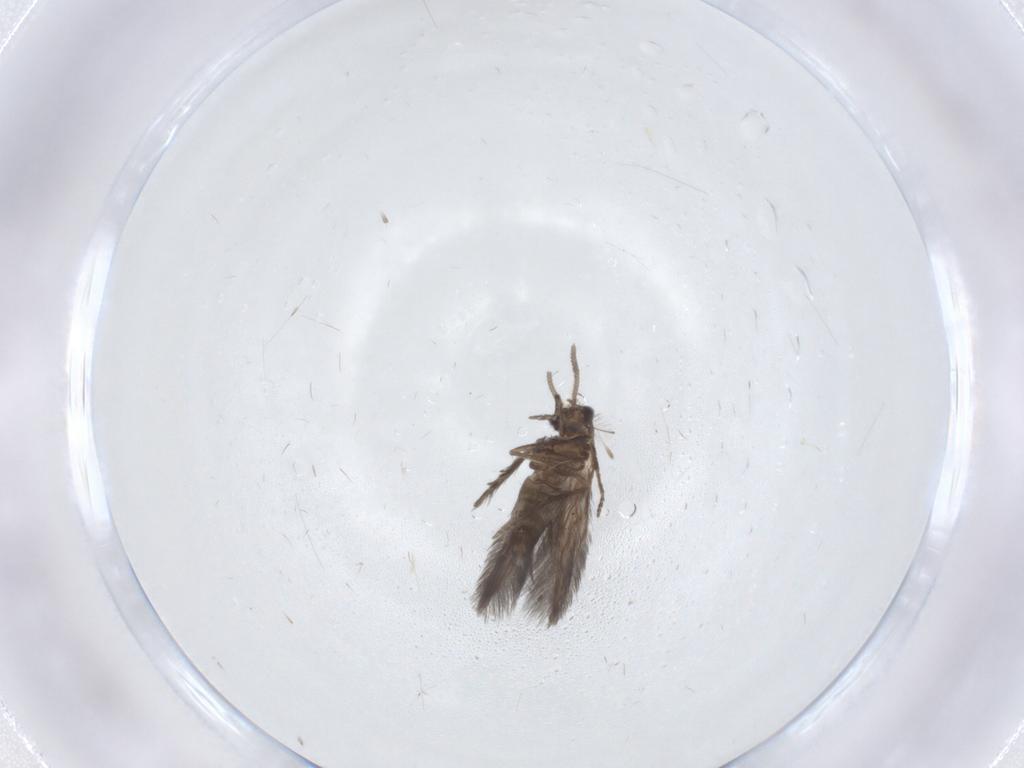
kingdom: Animalia
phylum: Arthropoda
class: Insecta
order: Trichoptera
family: Hydroptilidae
